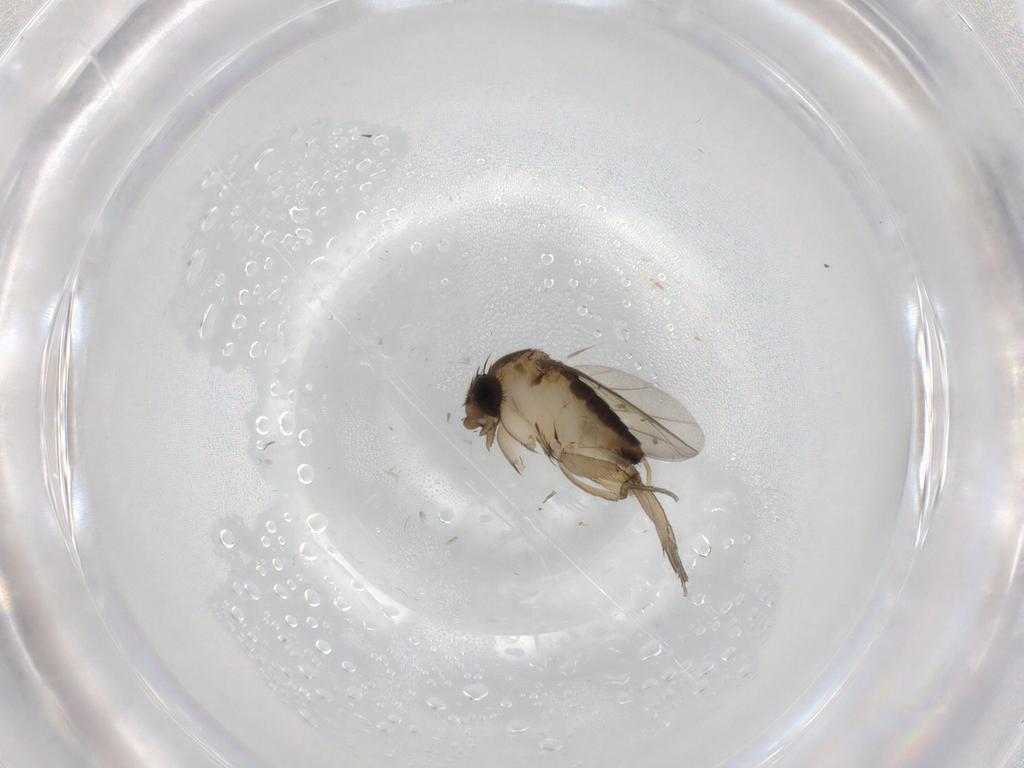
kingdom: Animalia
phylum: Arthropoda
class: Insecta
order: Diptera
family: Phoridae
